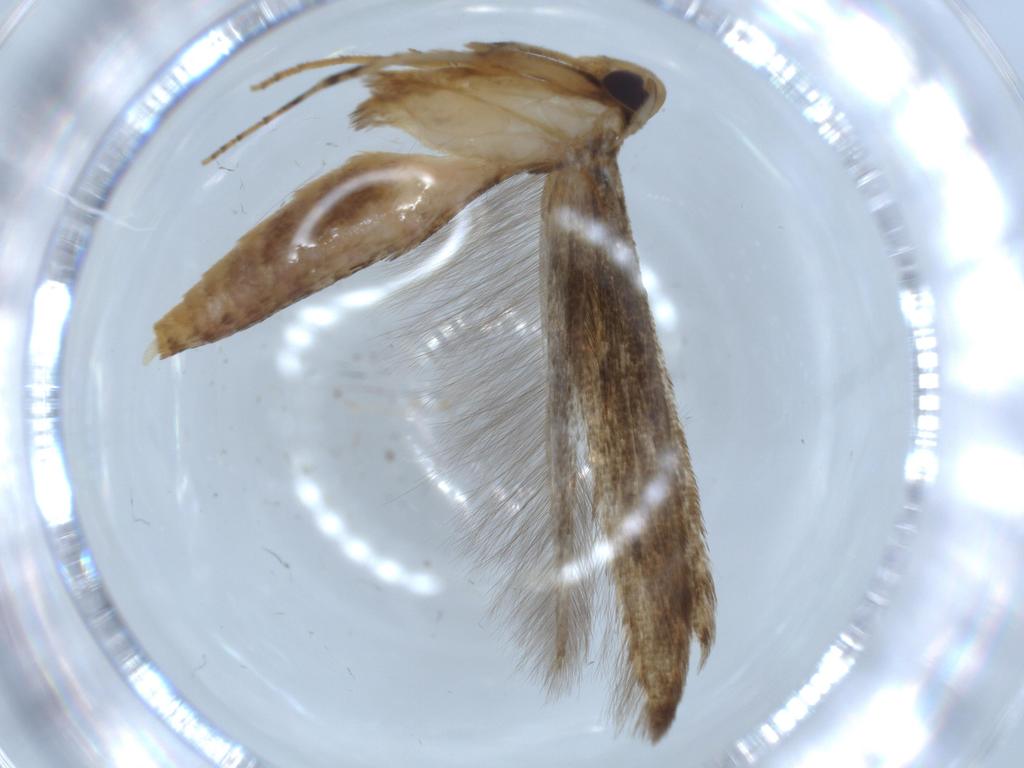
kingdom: Animalia
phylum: Arthropoda
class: Insecta
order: Lepidoptera
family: Heliodinidae
